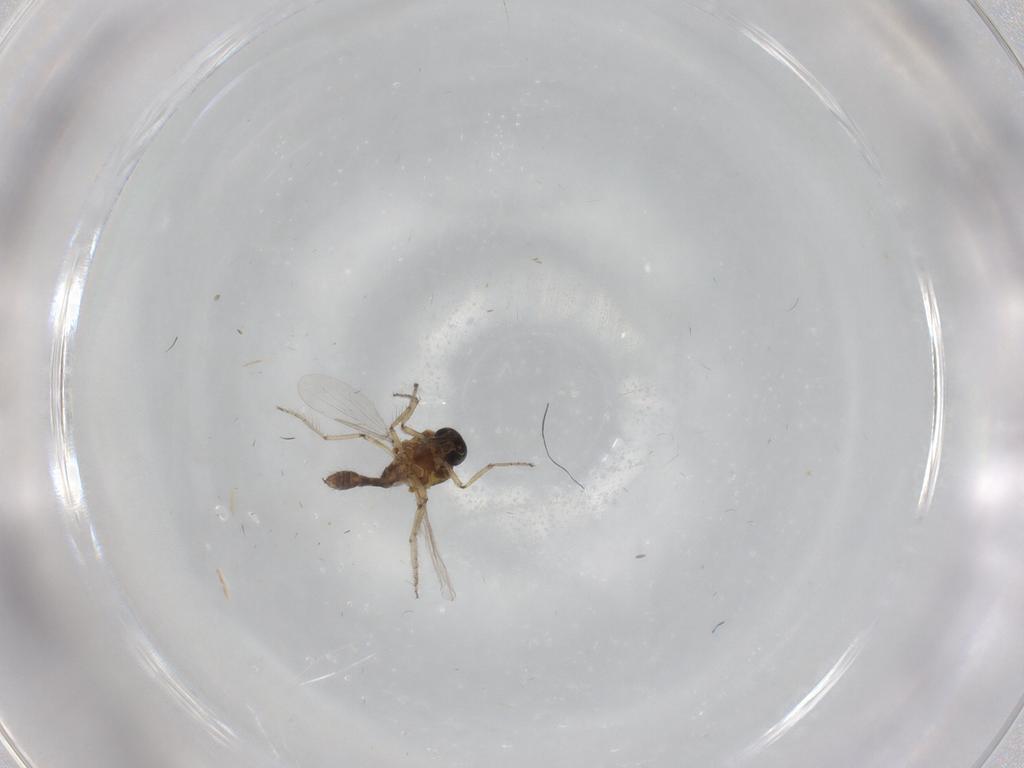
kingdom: Animalia
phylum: Arthropoda
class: Insecta
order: Diptera
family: Ceratopogonidae
